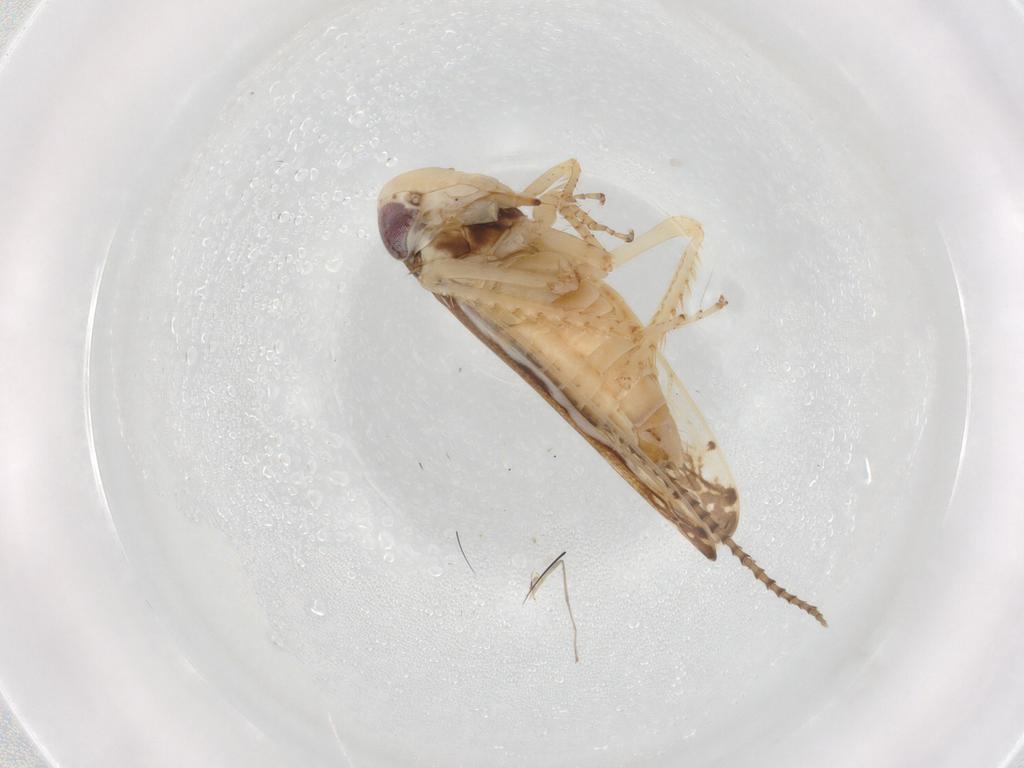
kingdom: Animalia
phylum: Arthropoda
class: Insecta
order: Hemiptera
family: Cicadellidae
